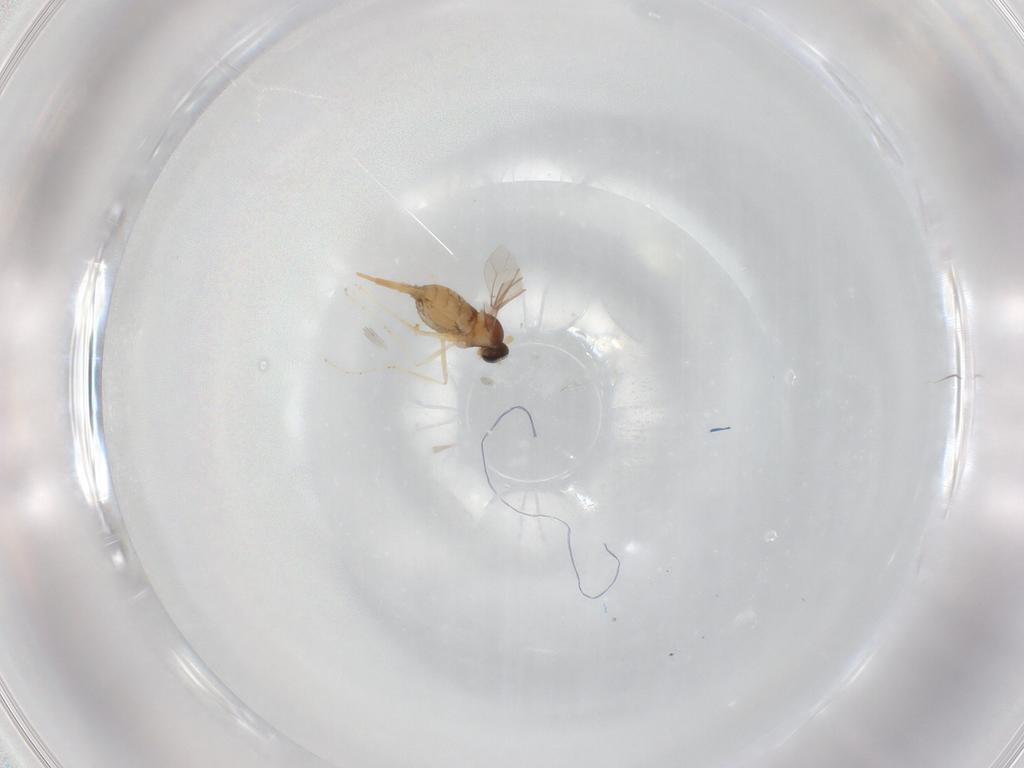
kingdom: Animalia
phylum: Arthropoda
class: Insecta
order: Diptera
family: Cecidomyiidae
